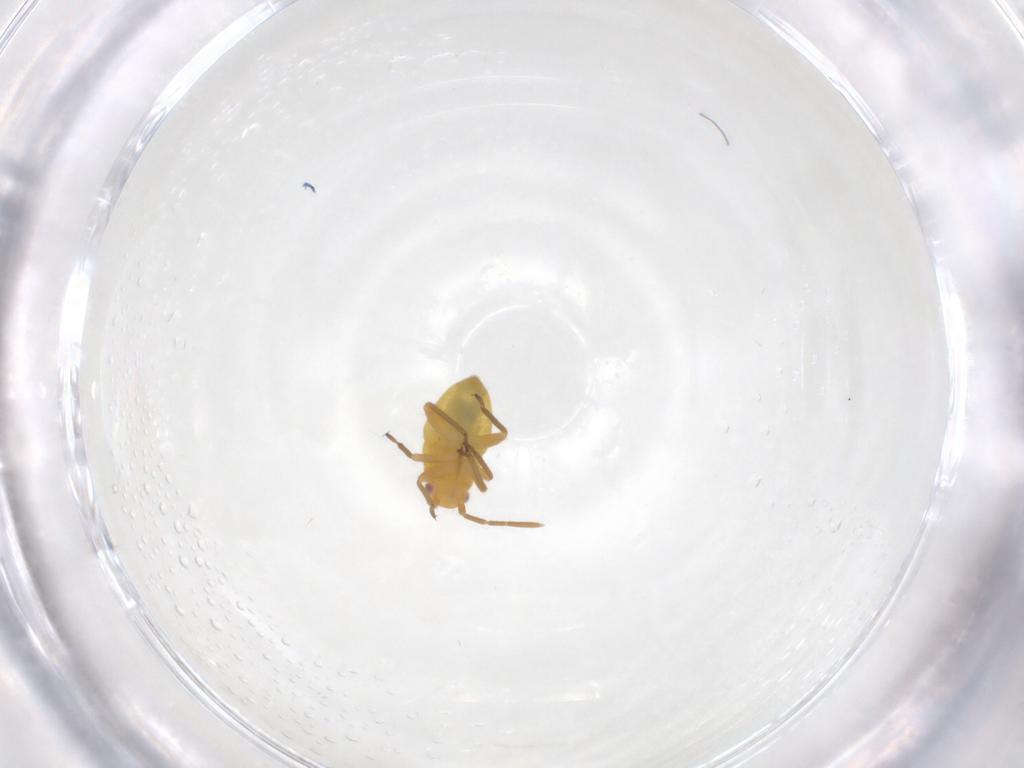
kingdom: Animalia
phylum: Arthropoda
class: Insecta
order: Hemiptera
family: Miridae
